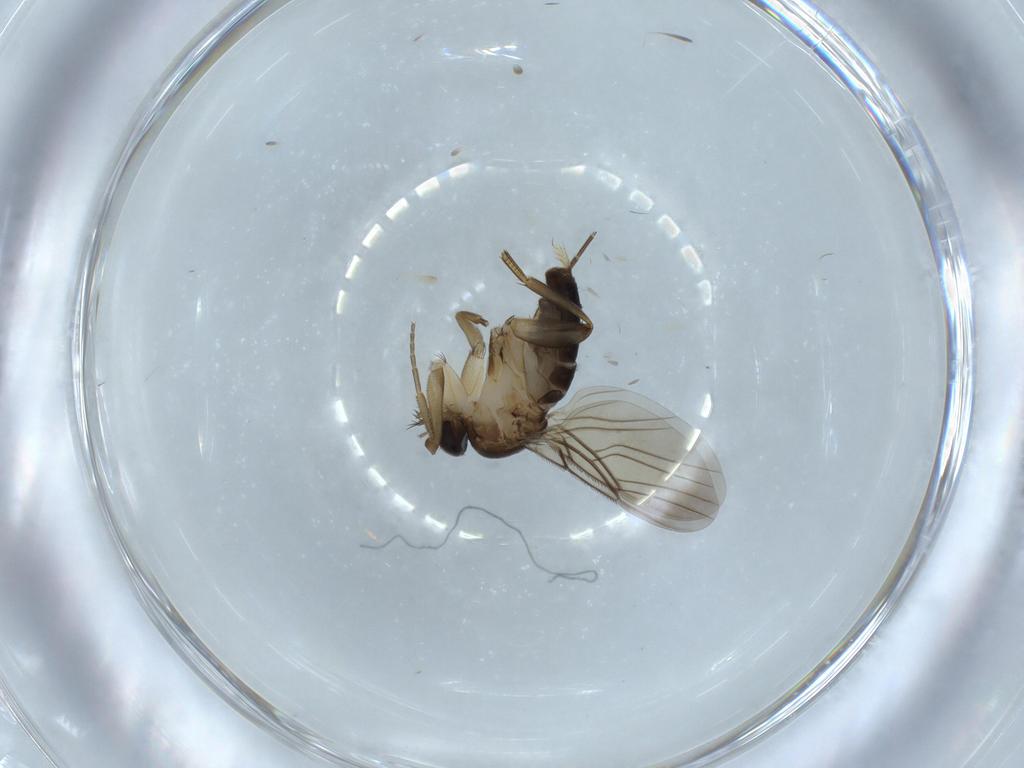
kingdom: Animalia
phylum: Arthropoda
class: Insecta
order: Diptera
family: Phoridae
